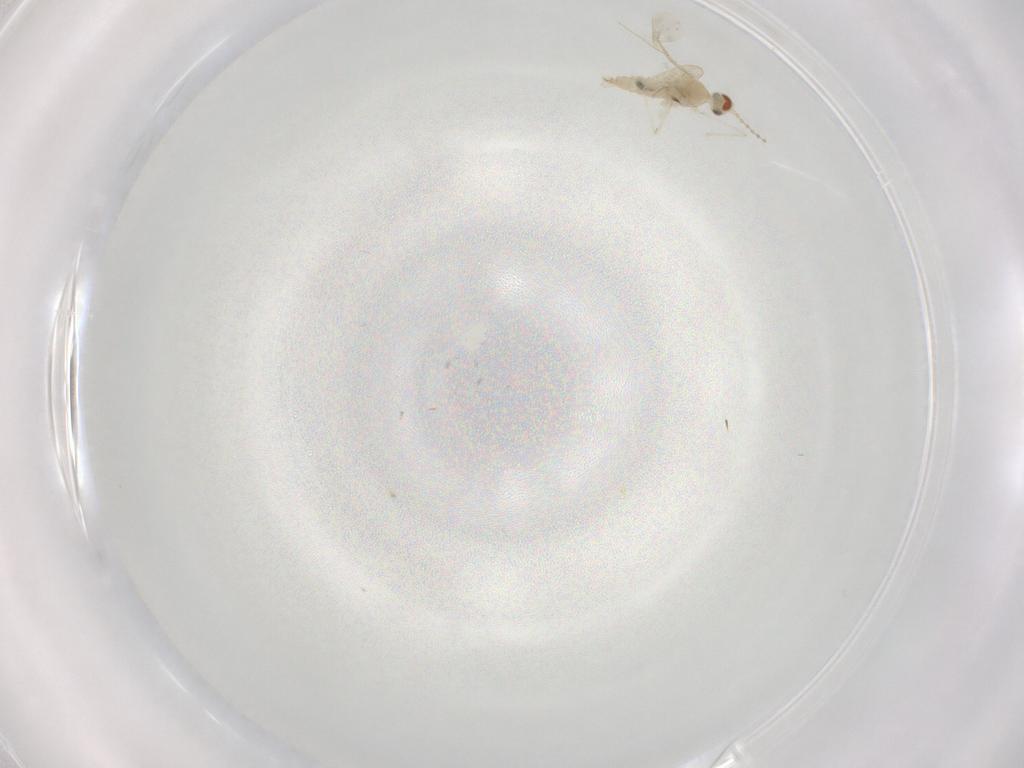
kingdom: Animalia
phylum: Arthropoda
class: Insecta
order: Diptera
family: Cecidomyiidae
